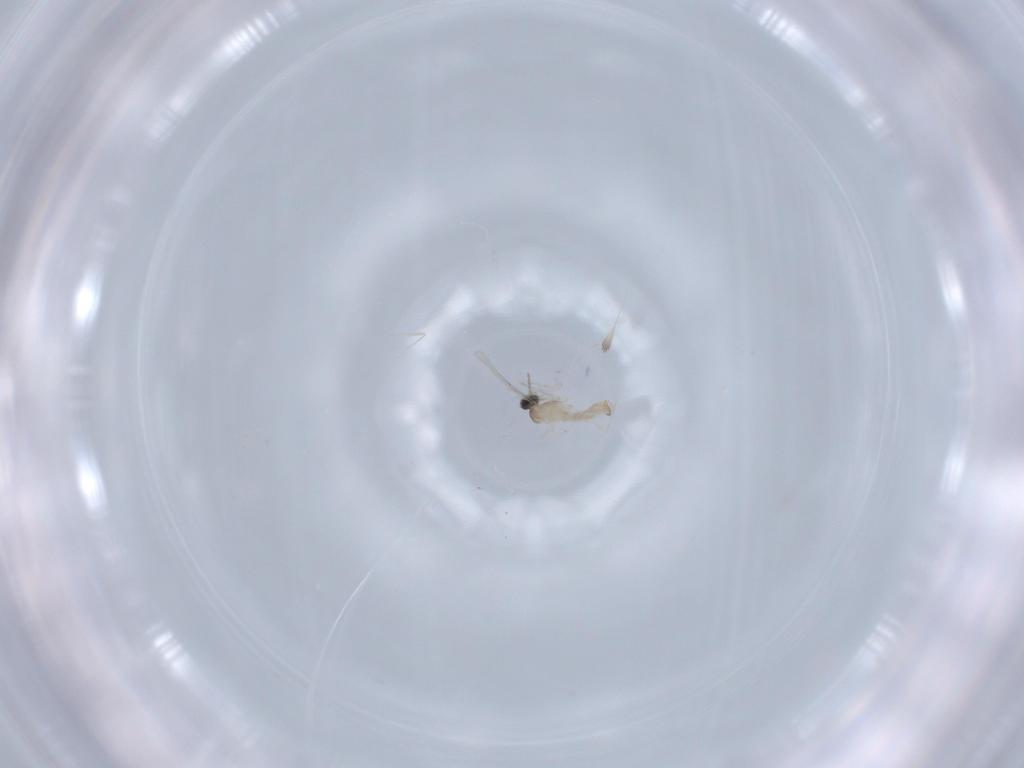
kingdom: Animalia
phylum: Arthropoda
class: Insecta
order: Diptera
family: Cecidomyiidae
